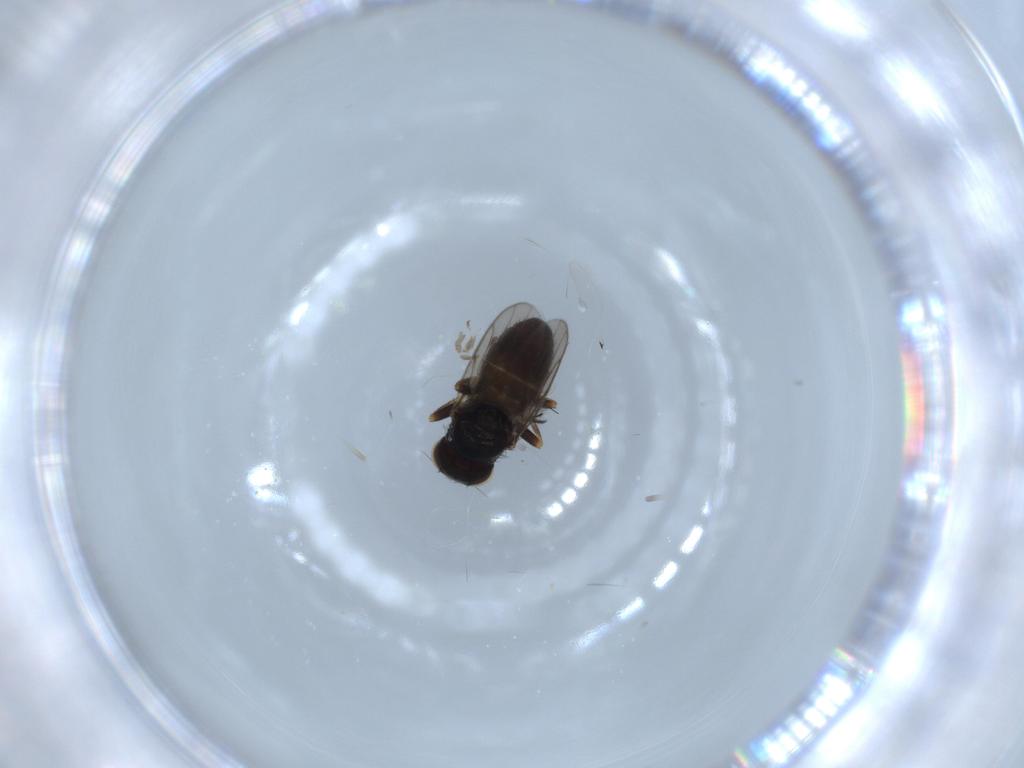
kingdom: Animalia
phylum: Arthropoda
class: Insecta
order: Diptera
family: Chloropidae
